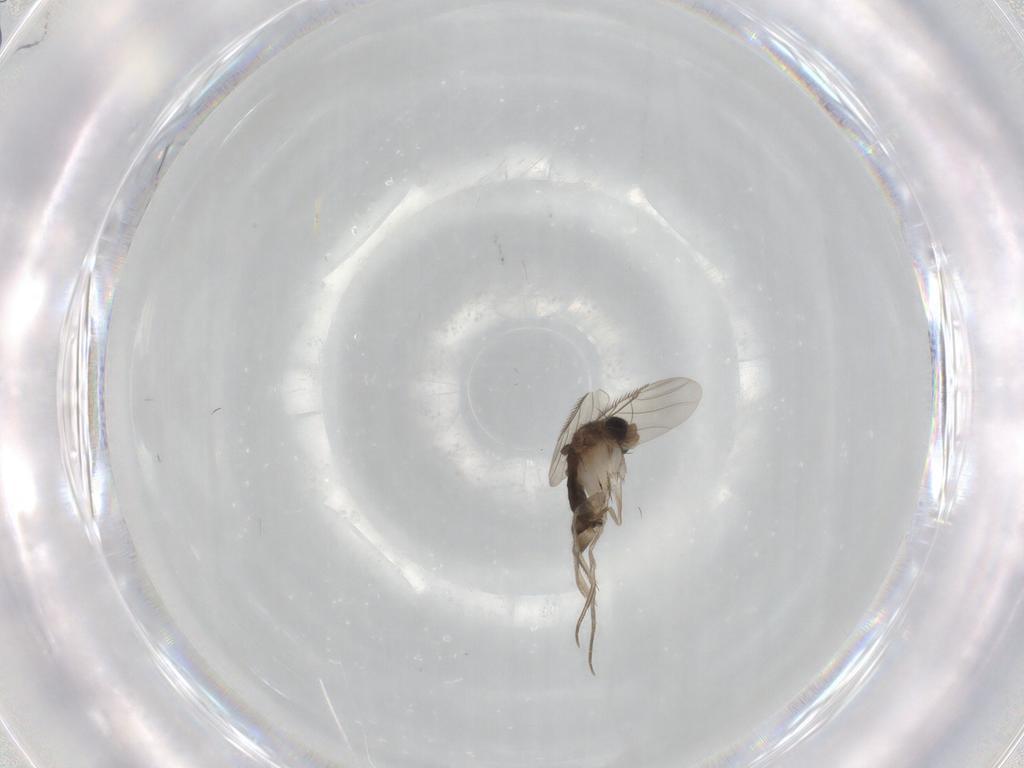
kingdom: Animalia
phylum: Arthropoda
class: Insecta
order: Diptera
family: Phoridae
